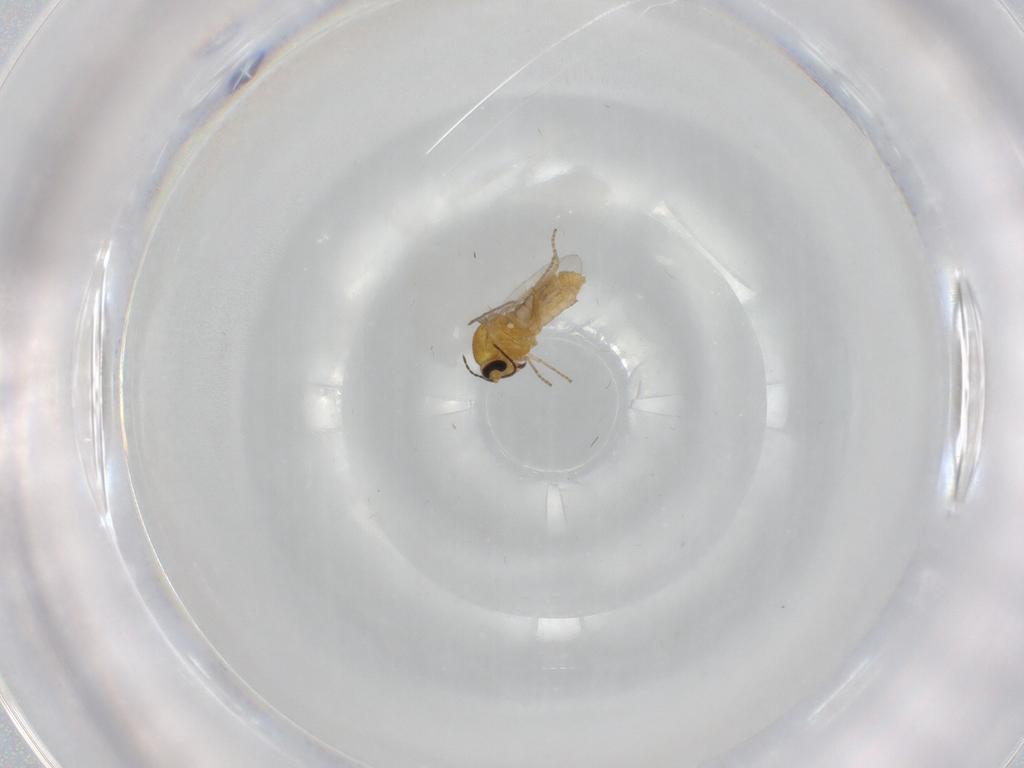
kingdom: Animalia
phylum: Arthropoda
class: Insecta
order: Diptera
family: Ceratopogonidae
